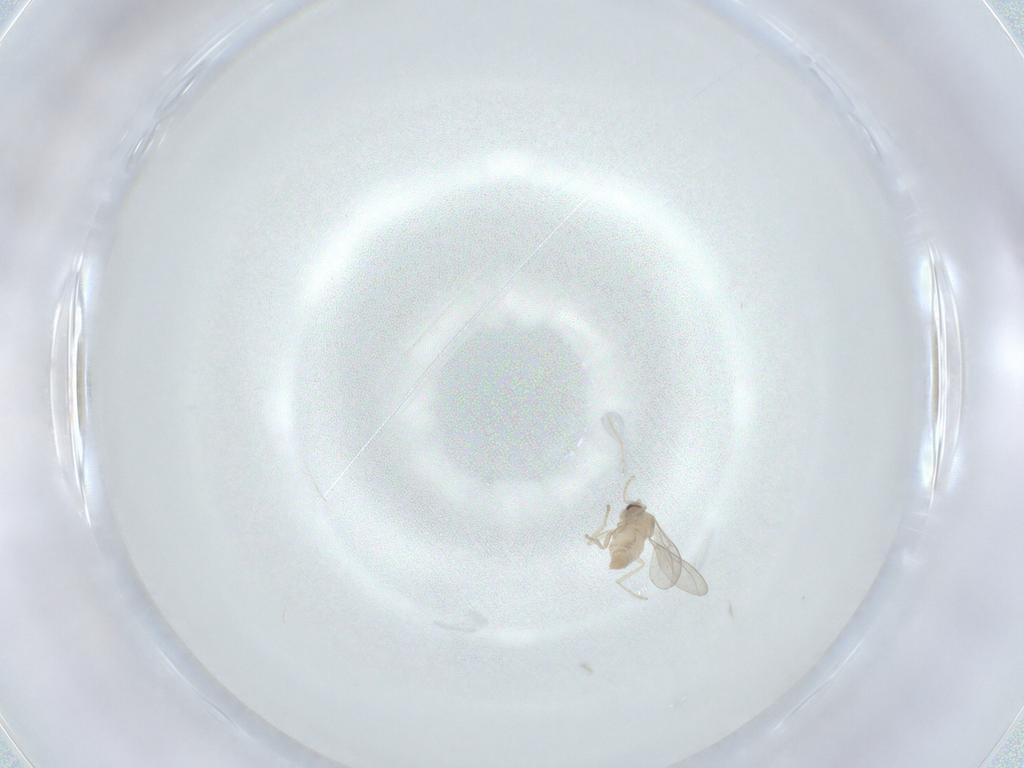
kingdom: Animalia
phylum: Arthropoda
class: Insecta
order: Diptera
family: Cecidomyiidae
